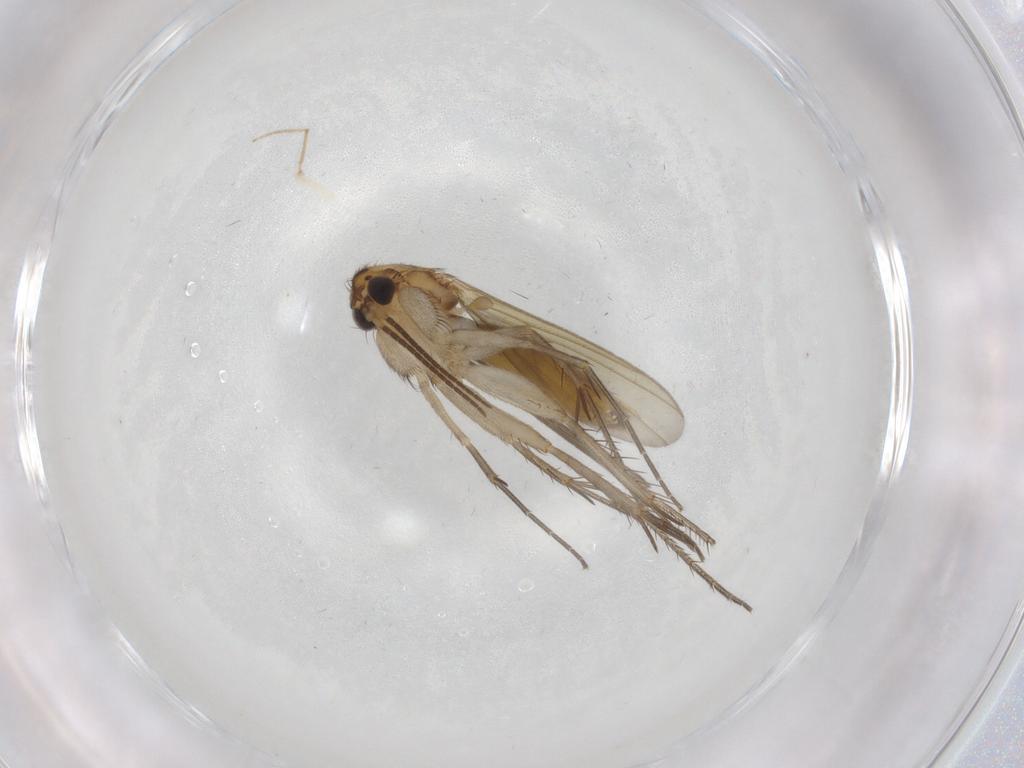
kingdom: Animalia
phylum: Arthropoda
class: Insecta
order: Diptera
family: Mycetophilidae
